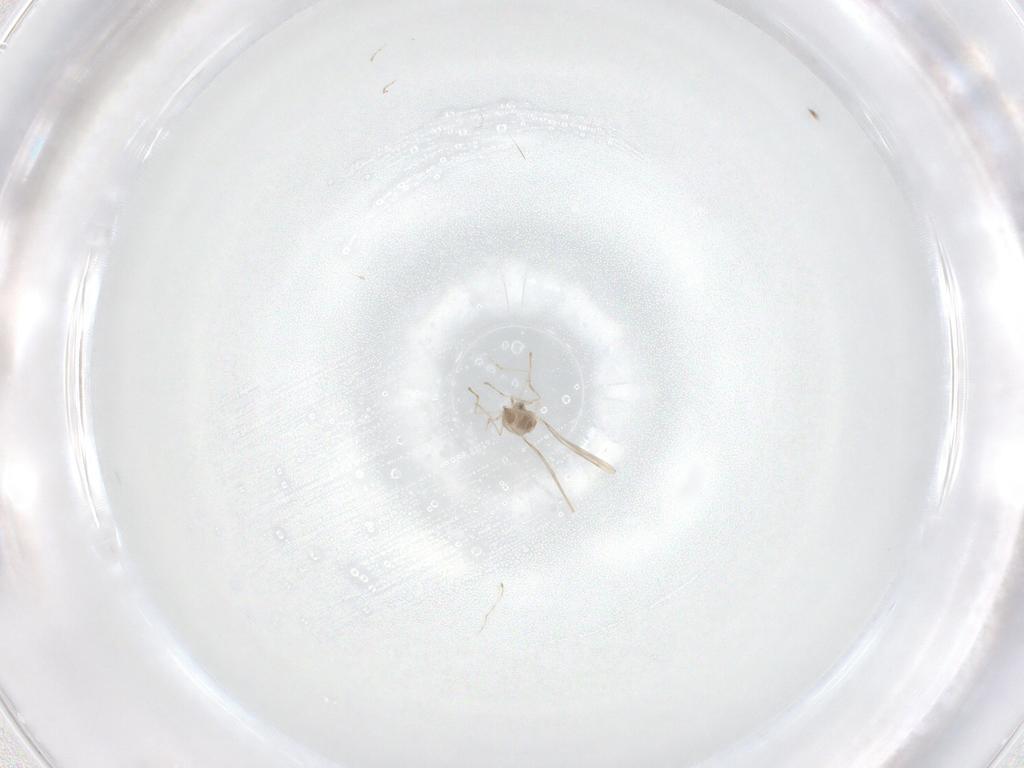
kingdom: Animalia
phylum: Arthropoda
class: Insecta
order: Diptera
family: Cecidomyiidae
